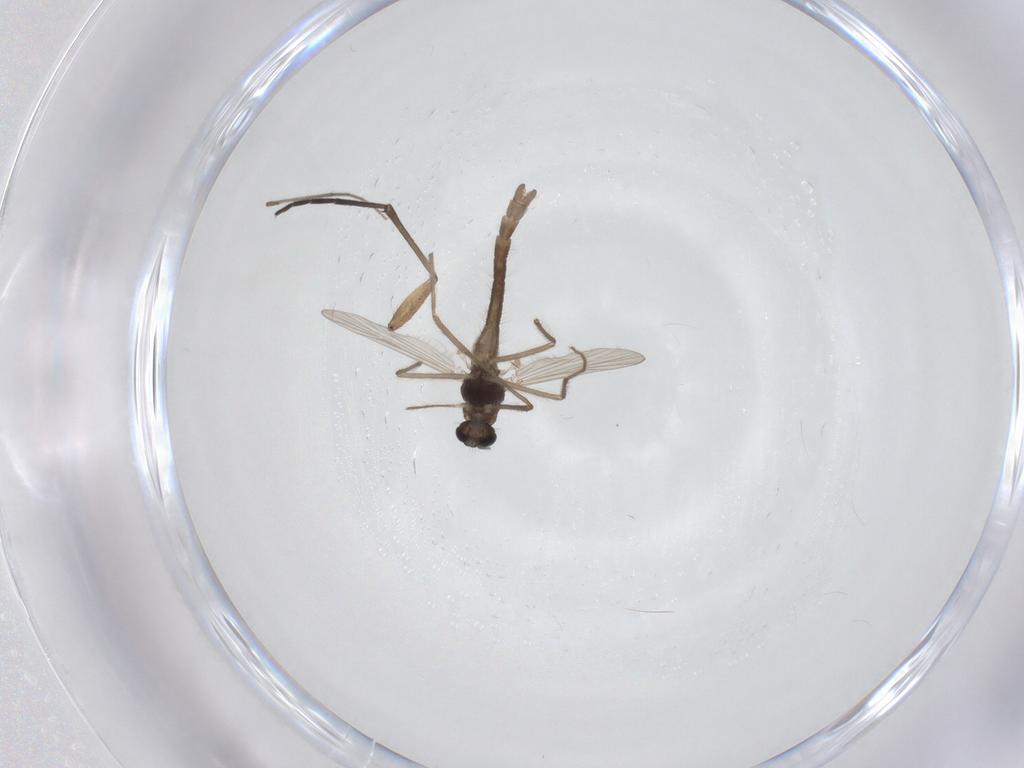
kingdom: Animalia
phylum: Arthropoda
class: Insecta
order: Diptera
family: Chironomidae
